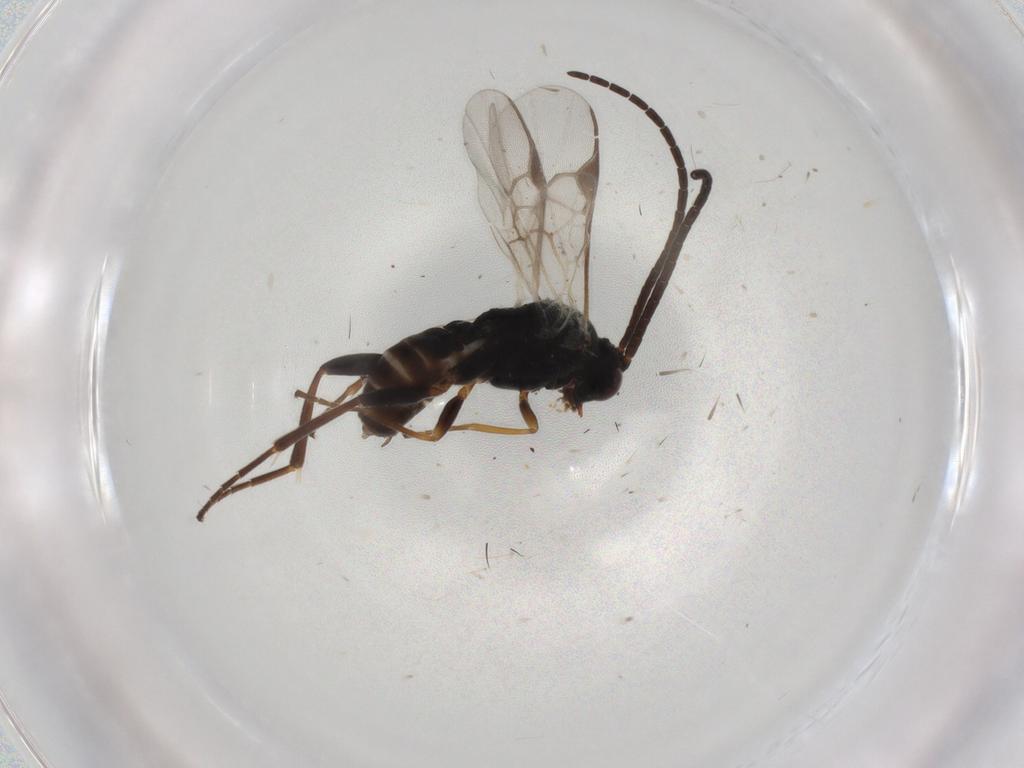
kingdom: Animalia
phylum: Arthropoda
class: Insecta
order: Hymenoptera
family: Braconidae
